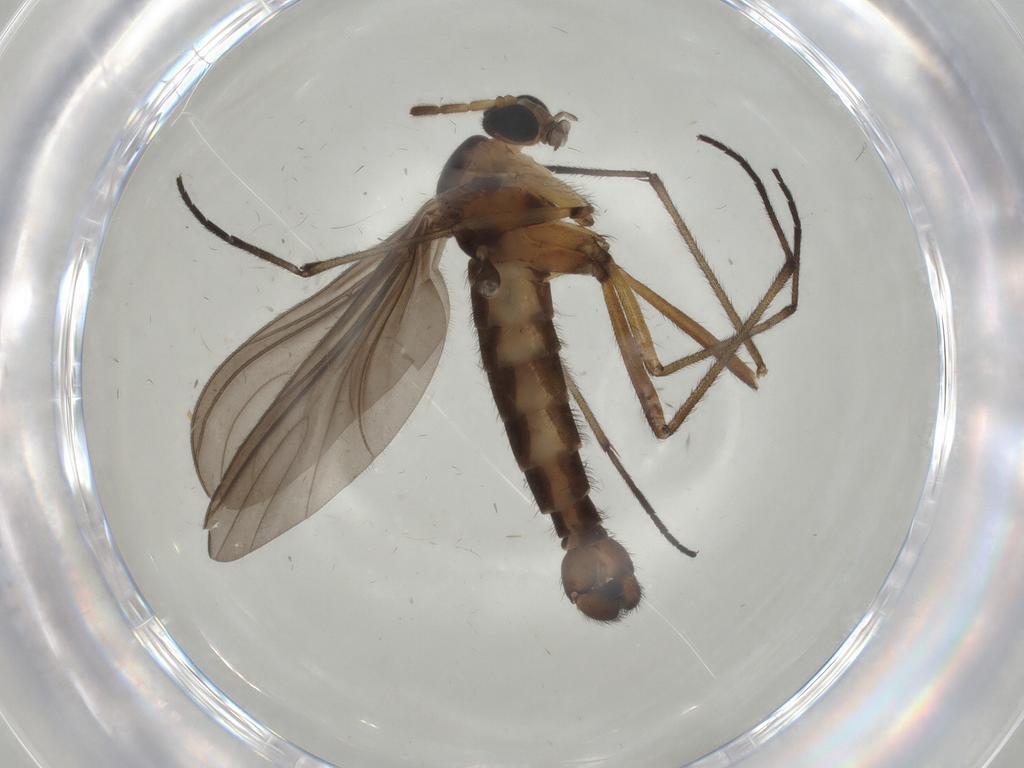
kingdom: Animalia
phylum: Arthropoda
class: Insecta
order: Diptera
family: Sciaridae
